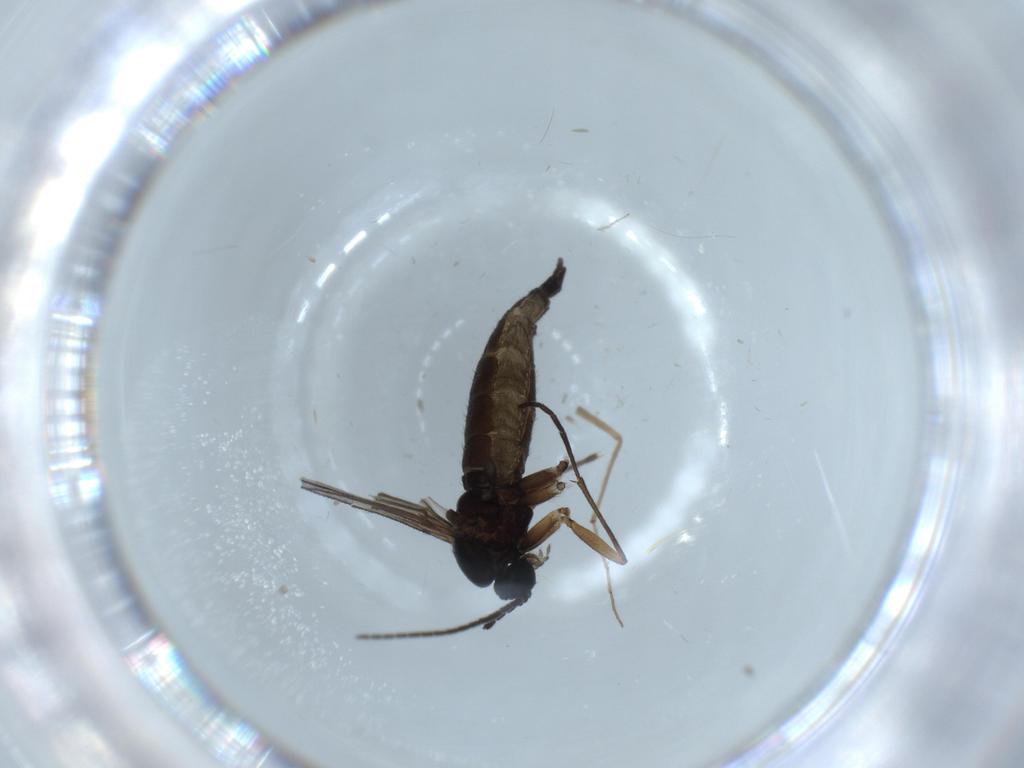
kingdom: Animalia
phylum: Arthropoda
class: Insecta
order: Diptera
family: Sciaridae
